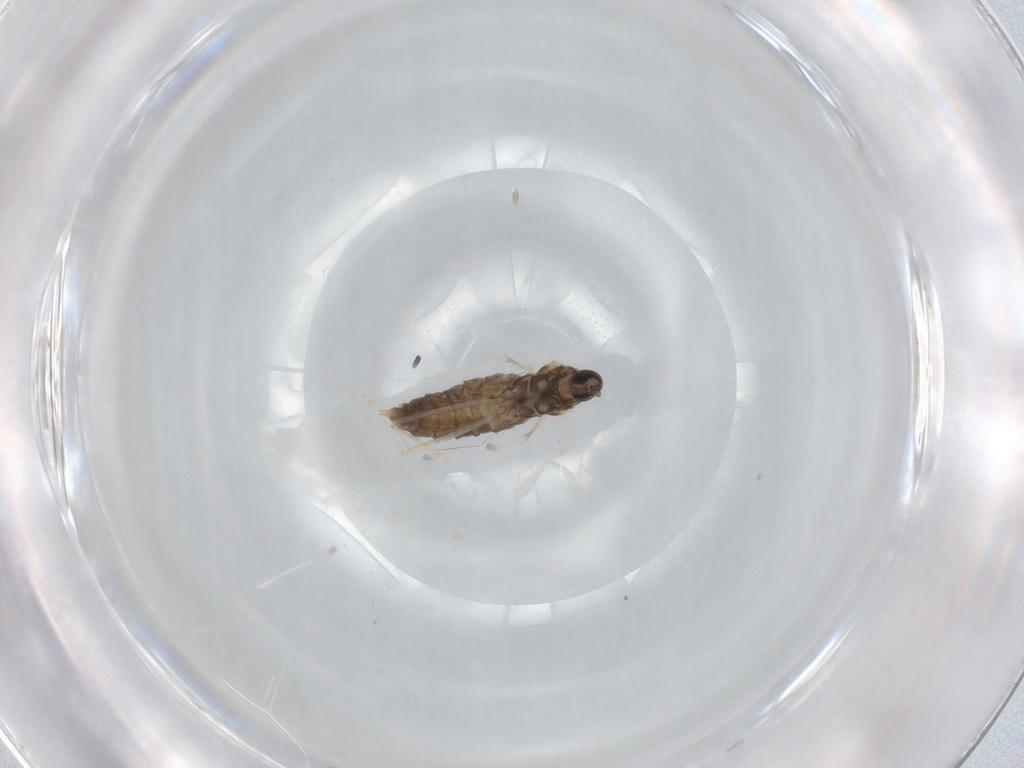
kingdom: Animalia
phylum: Arthropoda
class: Insecta
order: Diptera
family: Cecidomyiidae
